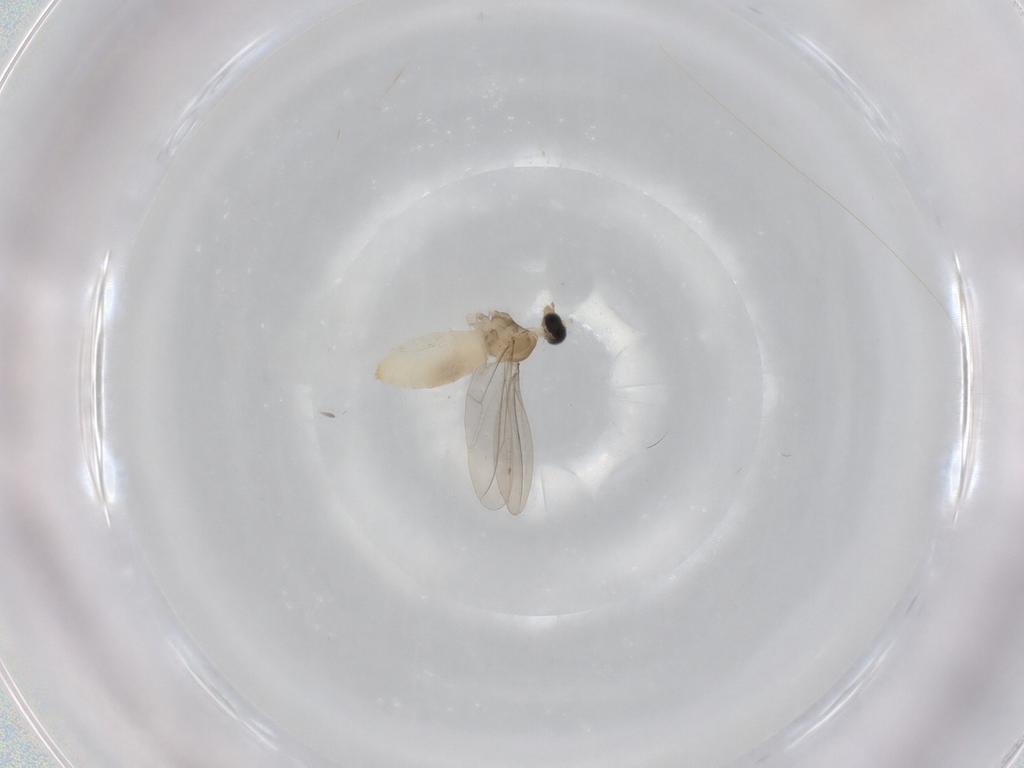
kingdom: Animalia
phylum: Arthropoda
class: Insecta
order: Diptera
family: Cecidomyiidae
